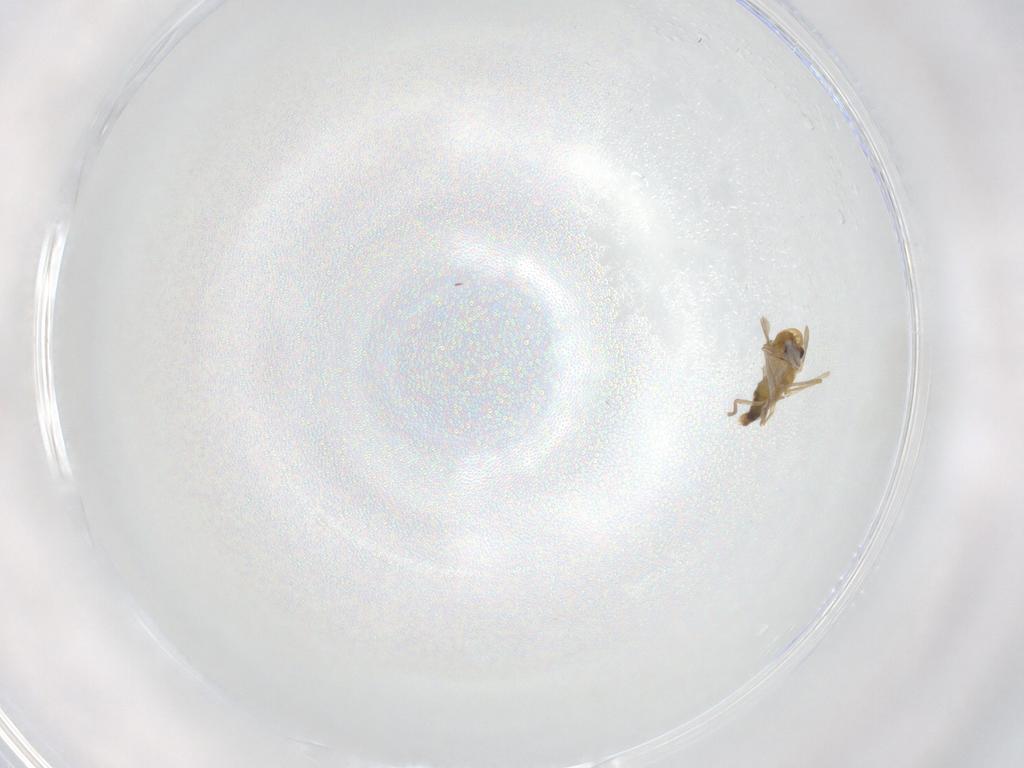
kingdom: Animalia
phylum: Arthropoda
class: Insecta
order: Diptera
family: Chironomidae
